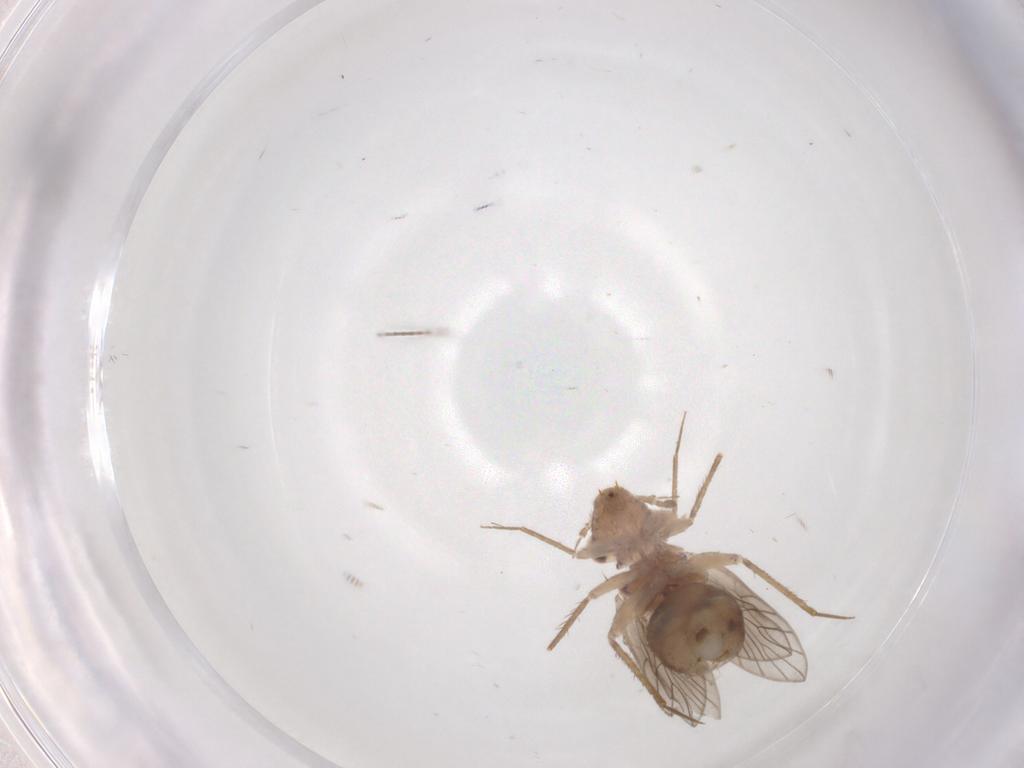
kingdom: Animalia
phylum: Arthropoda
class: Insecta
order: Psocodea
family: Lepidopsocidae
